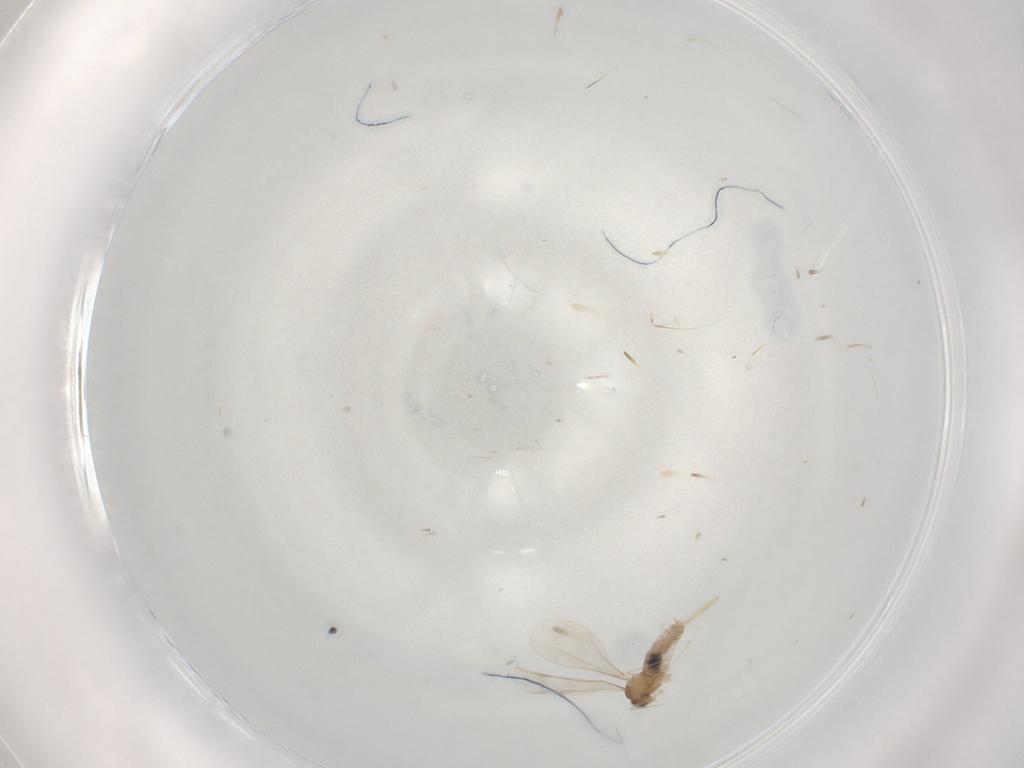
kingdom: Animalia
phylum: Arthropoda
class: Insecta
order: Diptera
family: Cecidomyiidae
